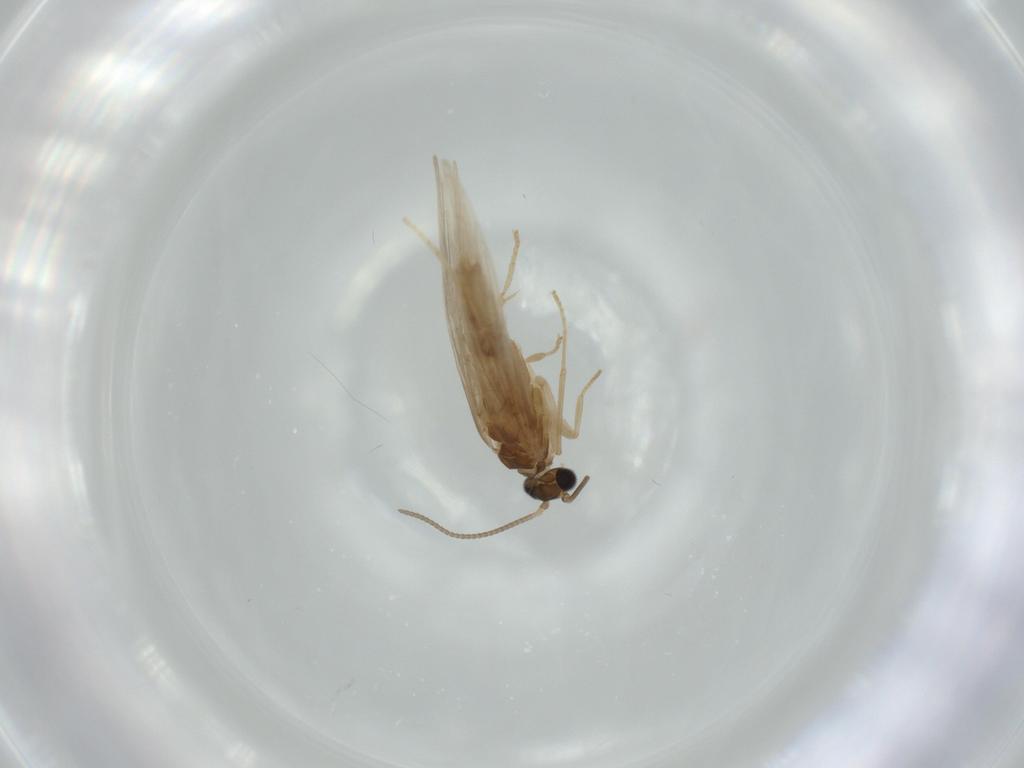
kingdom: Animalia
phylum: Arthropoda
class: Insecta
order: Trichoptera
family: Hydroptilidae
